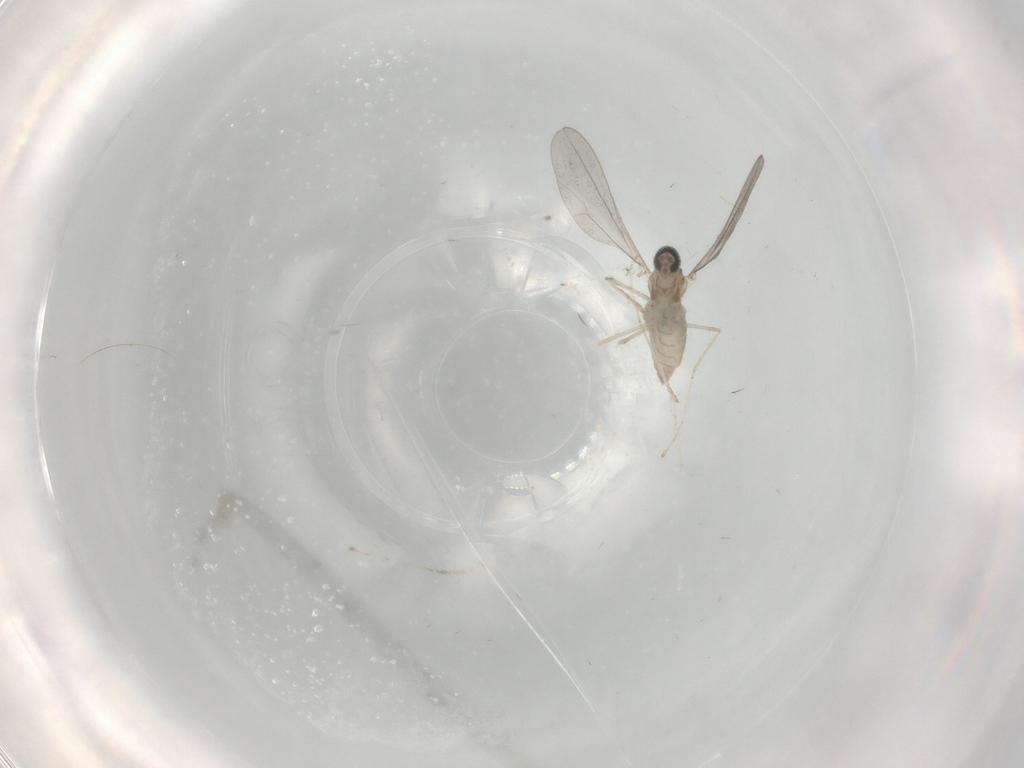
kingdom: Animalia
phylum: Arthropoda
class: Insecta
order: Diptera
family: Cecidomyiidae
